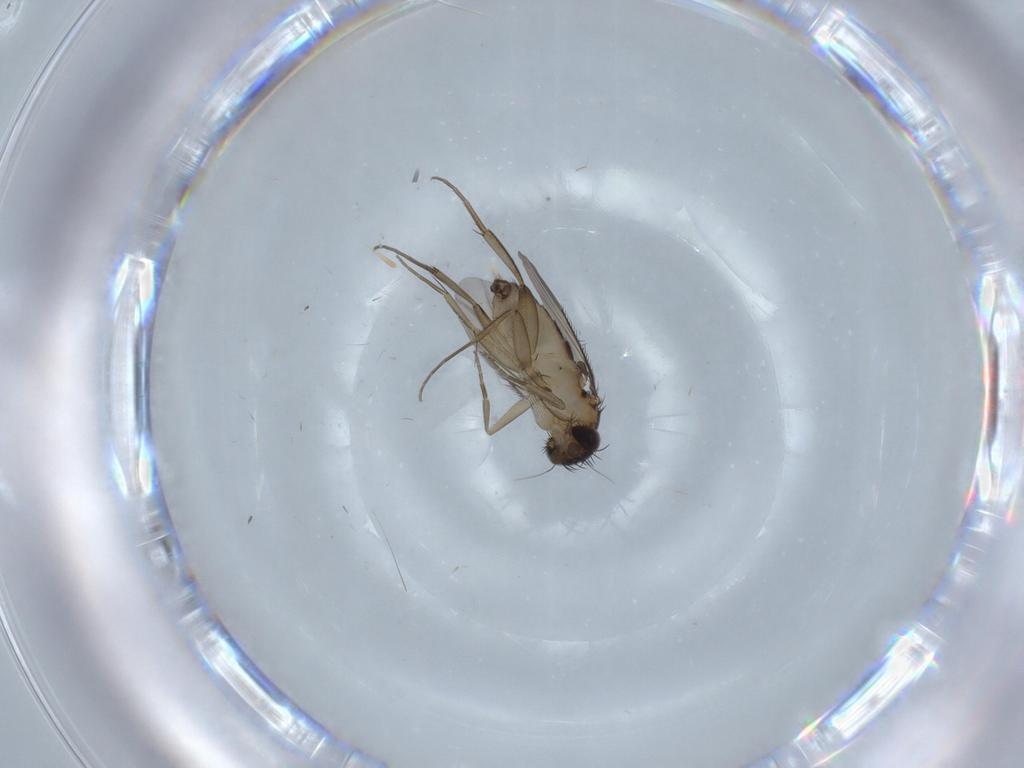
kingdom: Animalia
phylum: Arthropoda
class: Insecta
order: Diptera
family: Phoridae
